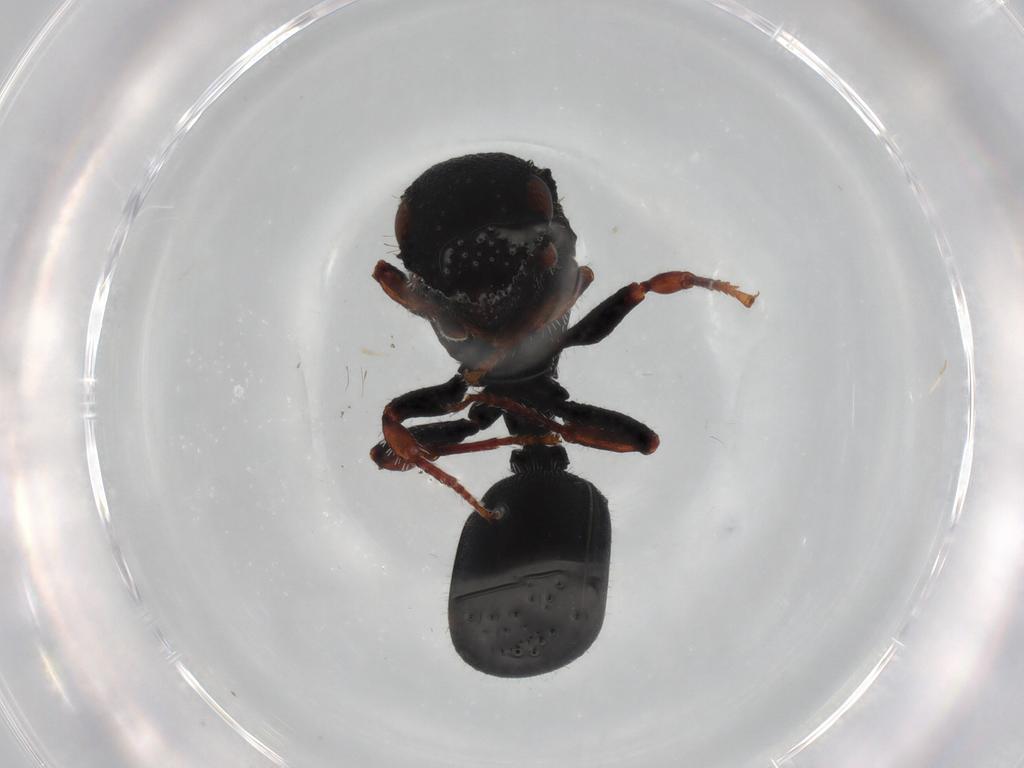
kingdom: Animalia
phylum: Arthropoda
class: Insecta
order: Hymenoptera
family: Formicidae
